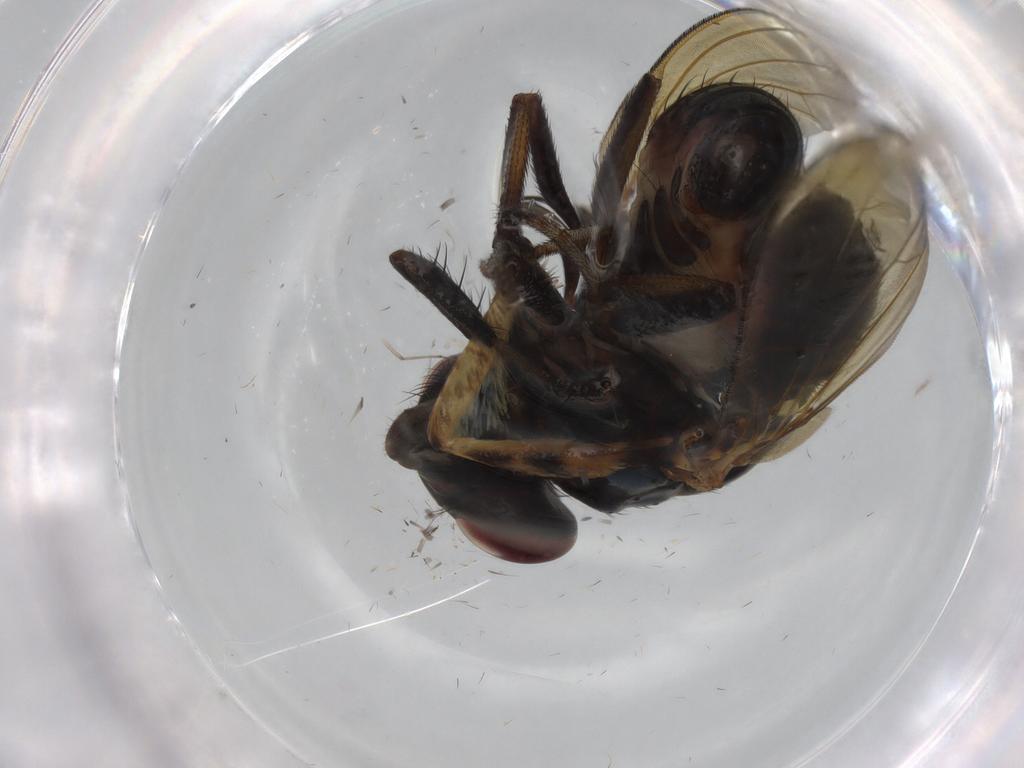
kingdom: Animalia
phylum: Arthropoda
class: Insecta
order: Diptera
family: Lauxaniidae
